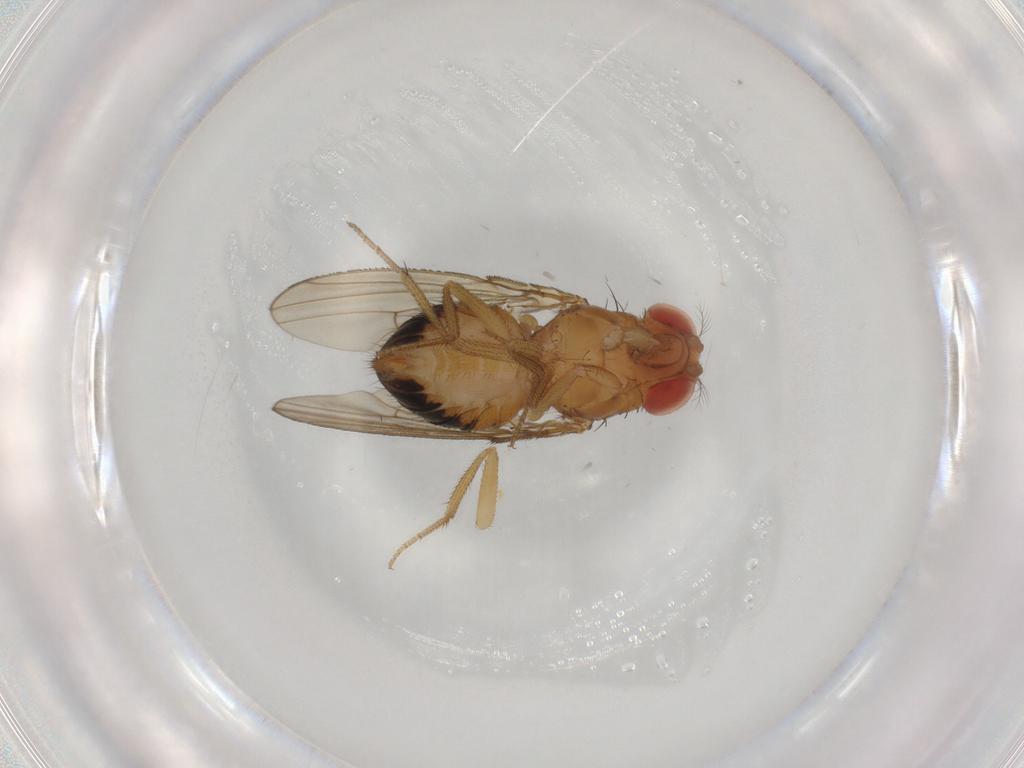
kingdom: Animalia
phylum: Arthropoda
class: Insecta
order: Diptera
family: Drosophilidae
